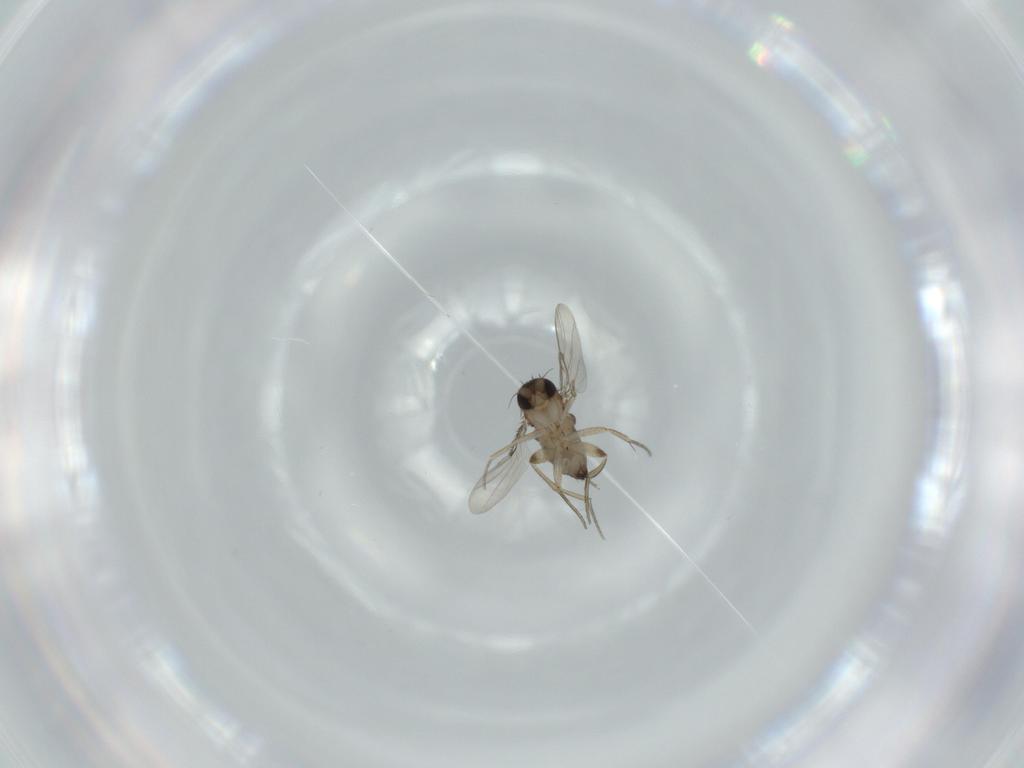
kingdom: Animalia
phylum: Arthropoda
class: Insecta
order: Diptera
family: Phoridae
